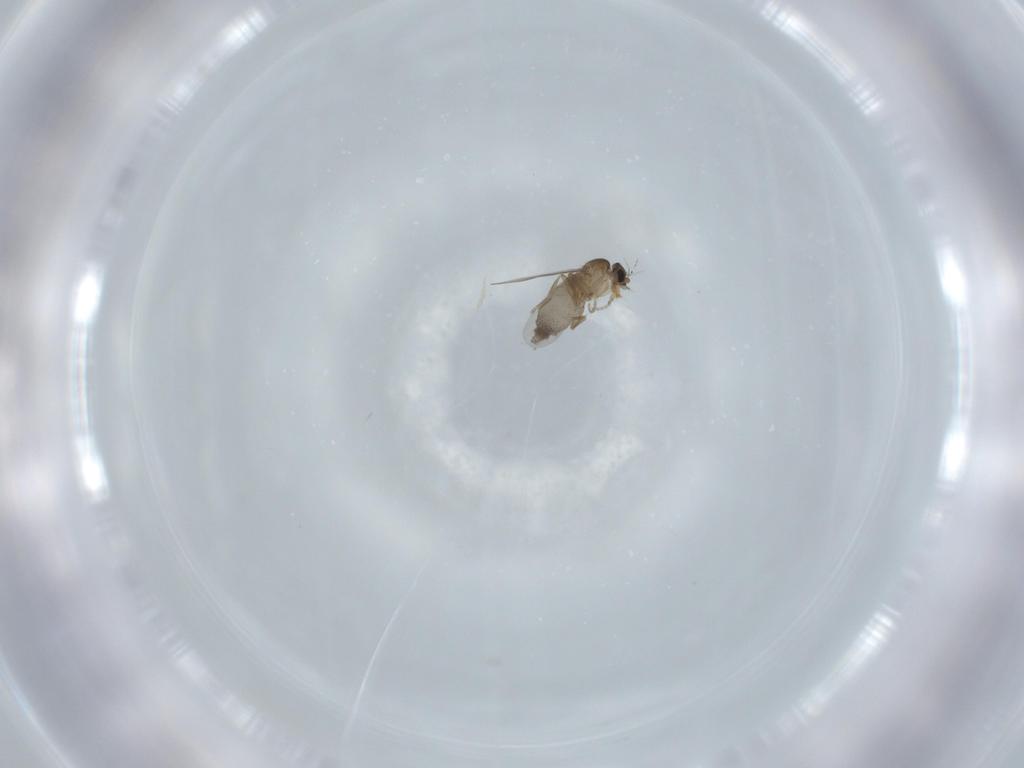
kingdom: Animalia
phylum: Arthropoda
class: Insecta
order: Diptera
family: Phoridae
